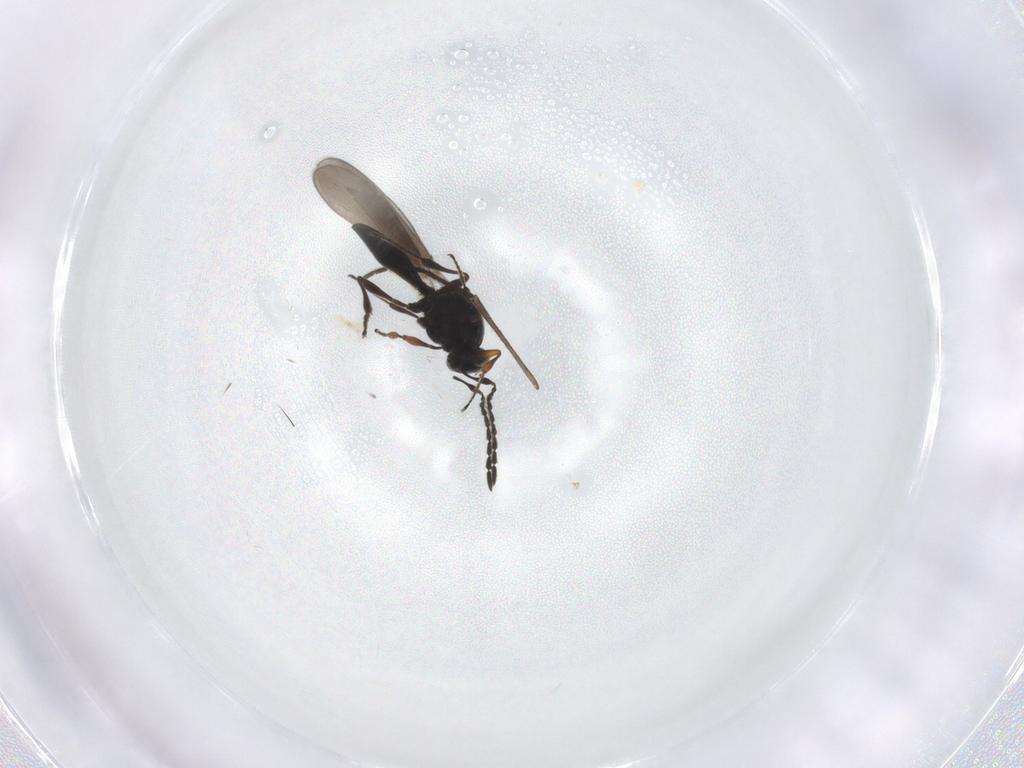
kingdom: Animalia
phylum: Arthropoda
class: Insecta
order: Hymenoptera
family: Platygastridae
